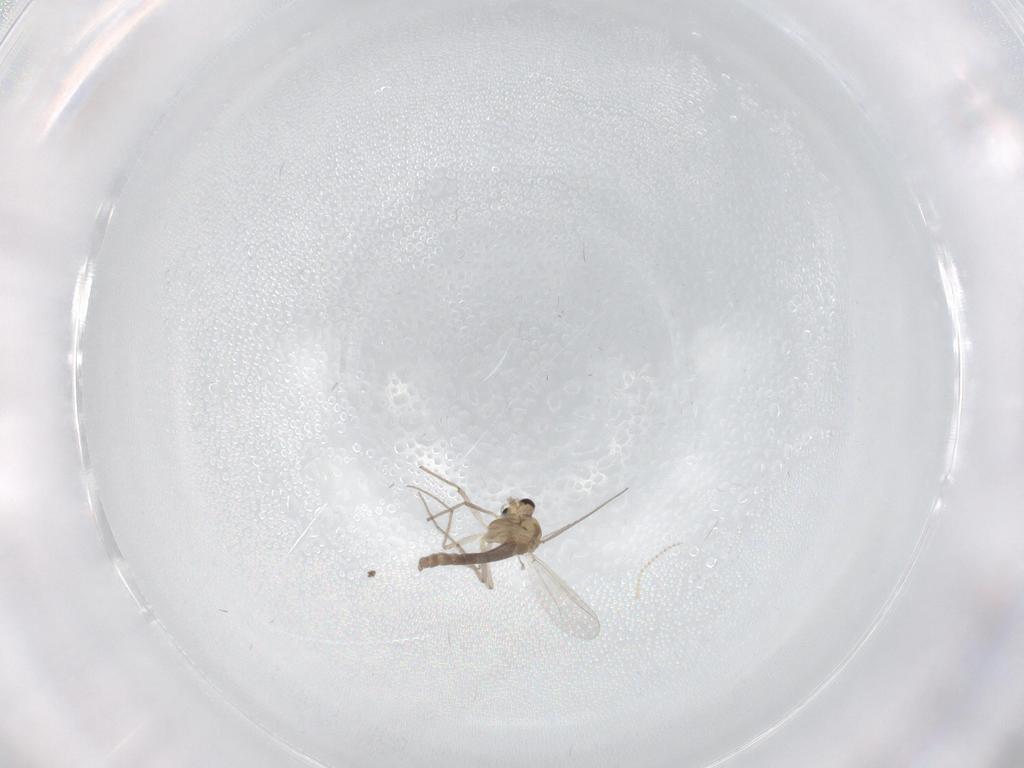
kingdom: Animalia
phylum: Arthropoda
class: Insecta
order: Diptera
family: Chironomidae
